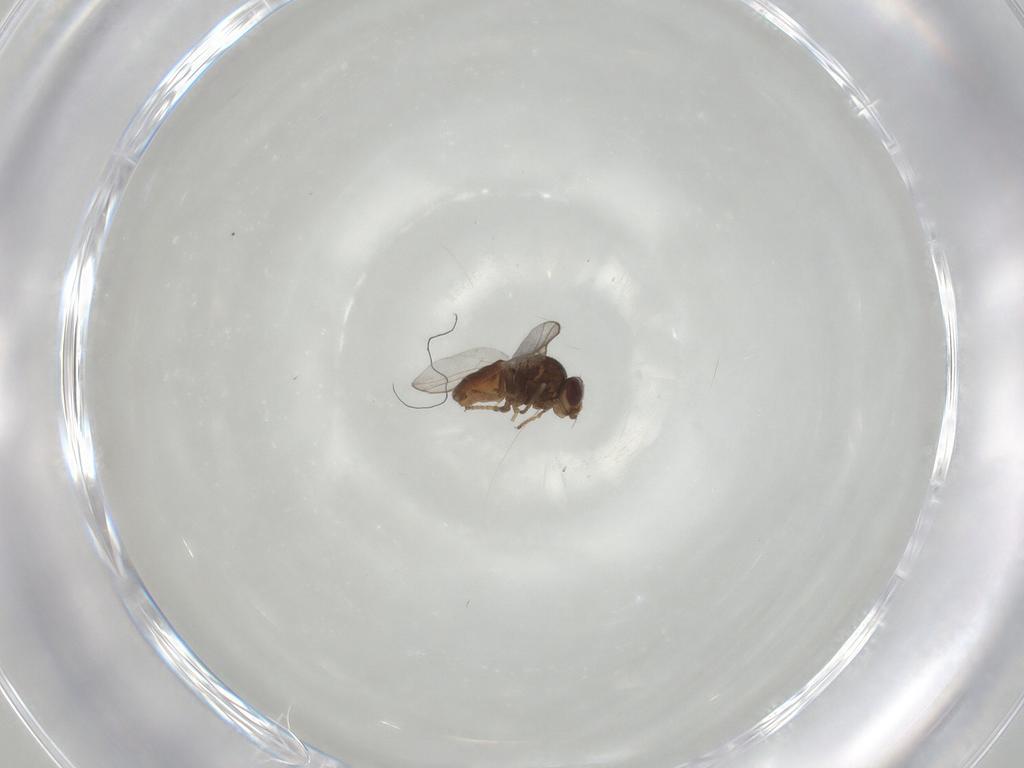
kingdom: Animalia
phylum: Arthropoda
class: Insecta
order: Diptera
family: Chloropidae
